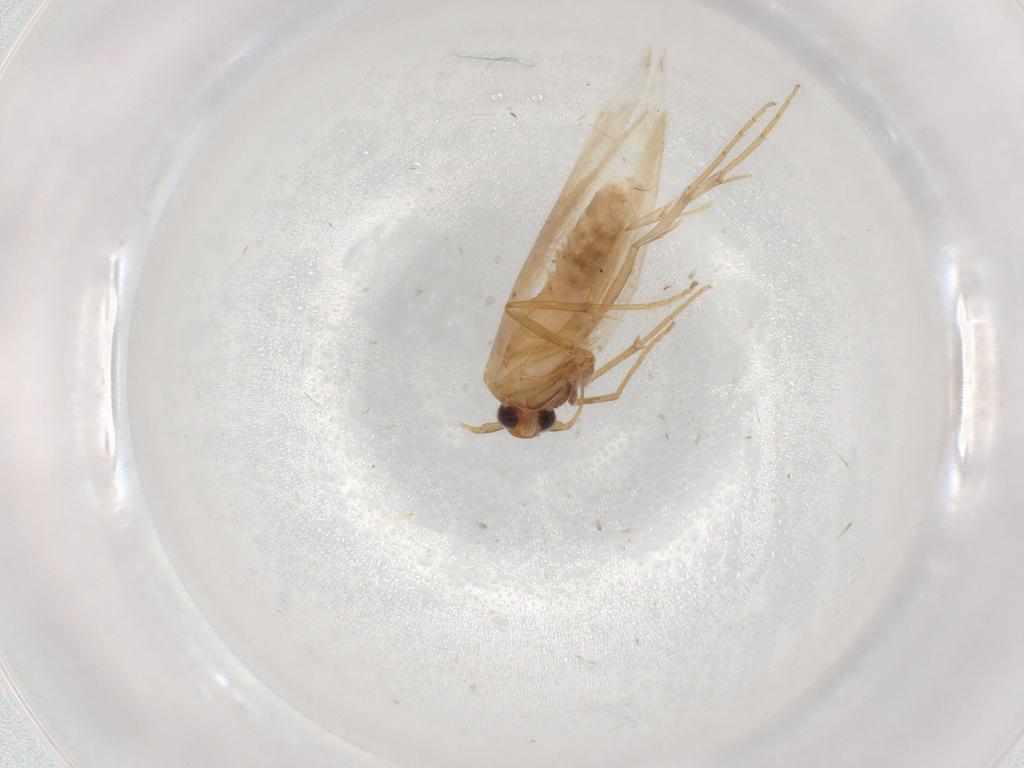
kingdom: Animalia
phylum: Arthropoda
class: Insecta
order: Lepidoptera
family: Gelechiidae
